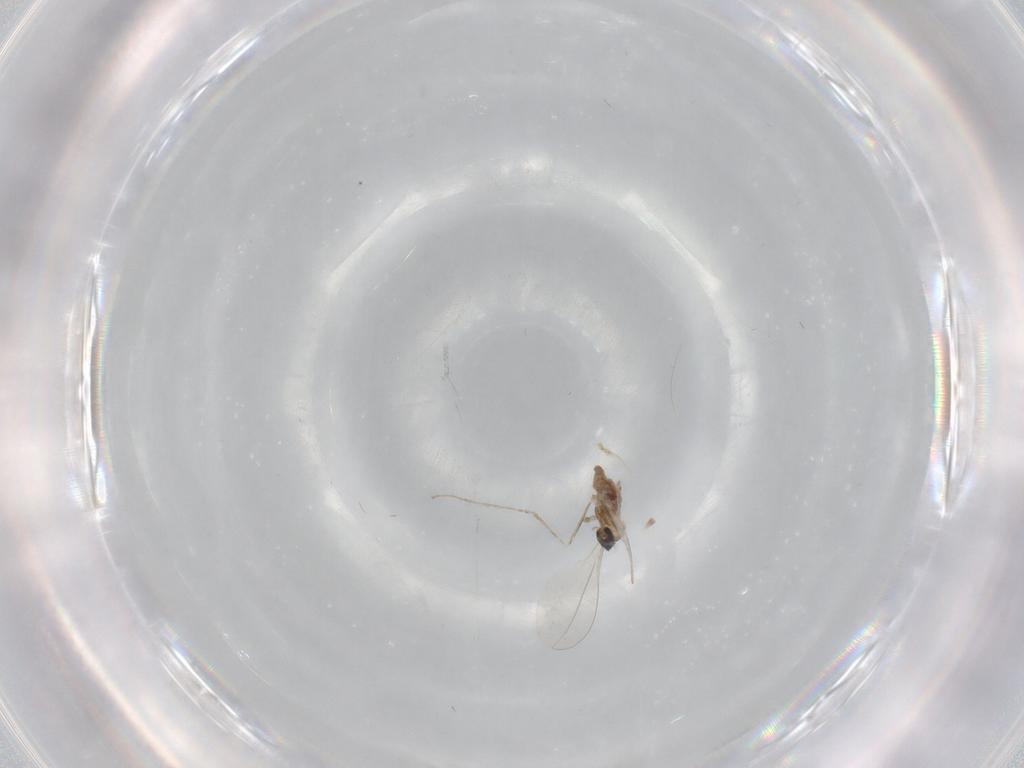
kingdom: Animalia
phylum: Arthropoda
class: Insecta
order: Diptera
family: Cecidomyiidae
